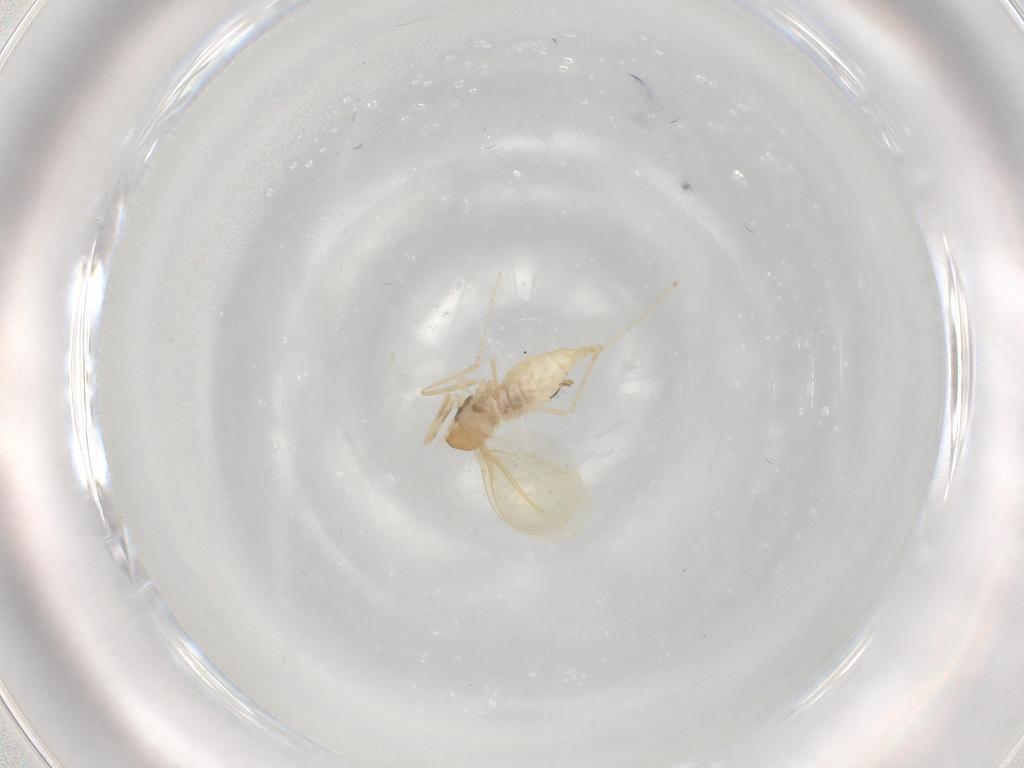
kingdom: Animalia
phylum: Arthropoda
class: Insecta
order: Diptera
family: Cecidomyiidae
